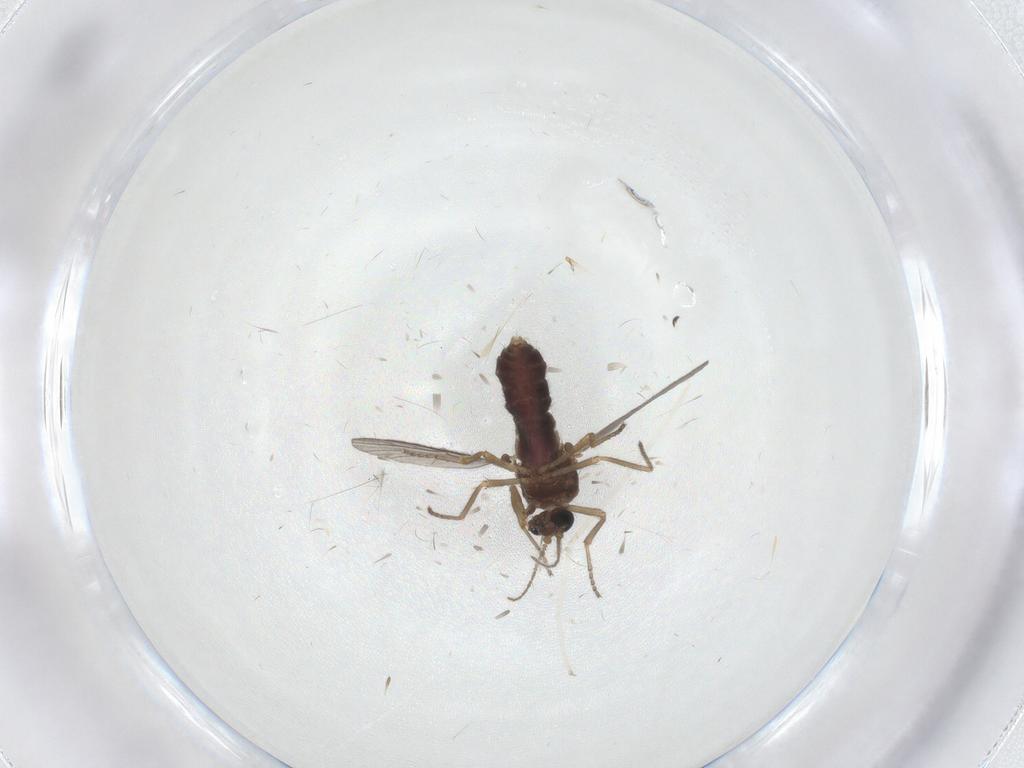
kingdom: Animalia
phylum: Arthropoda
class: Insecta
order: Diptera
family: Ceratopogonidae
